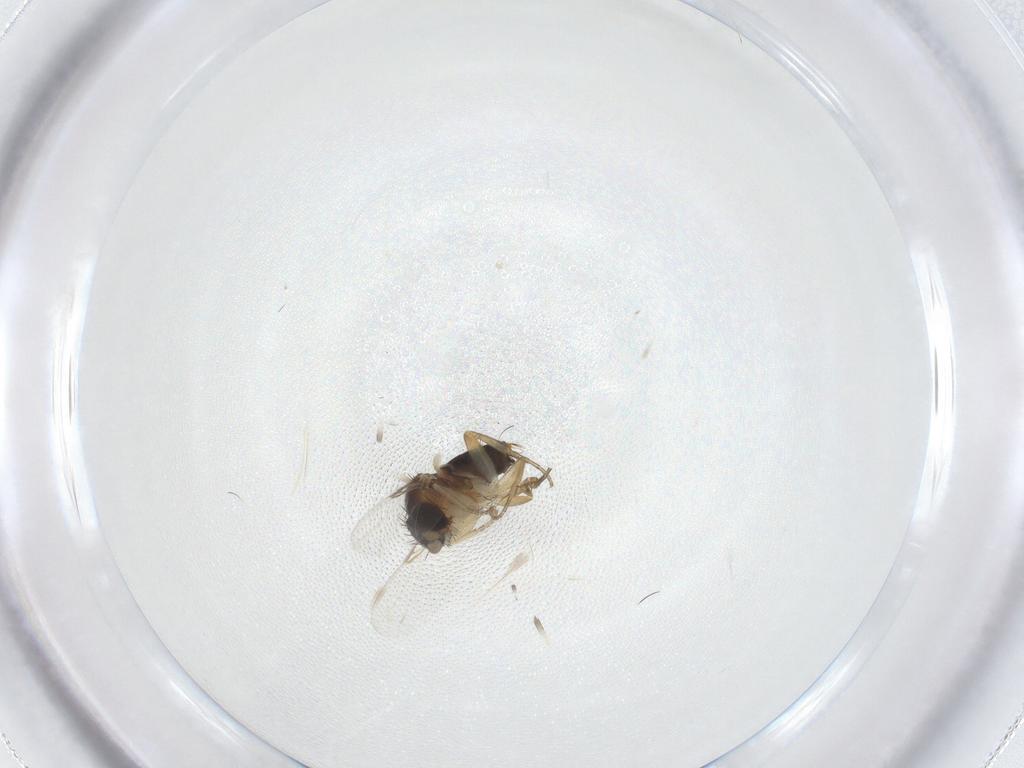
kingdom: Animalia
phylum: Arthropoda
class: Insecta
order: Diptera
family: Phoridae
